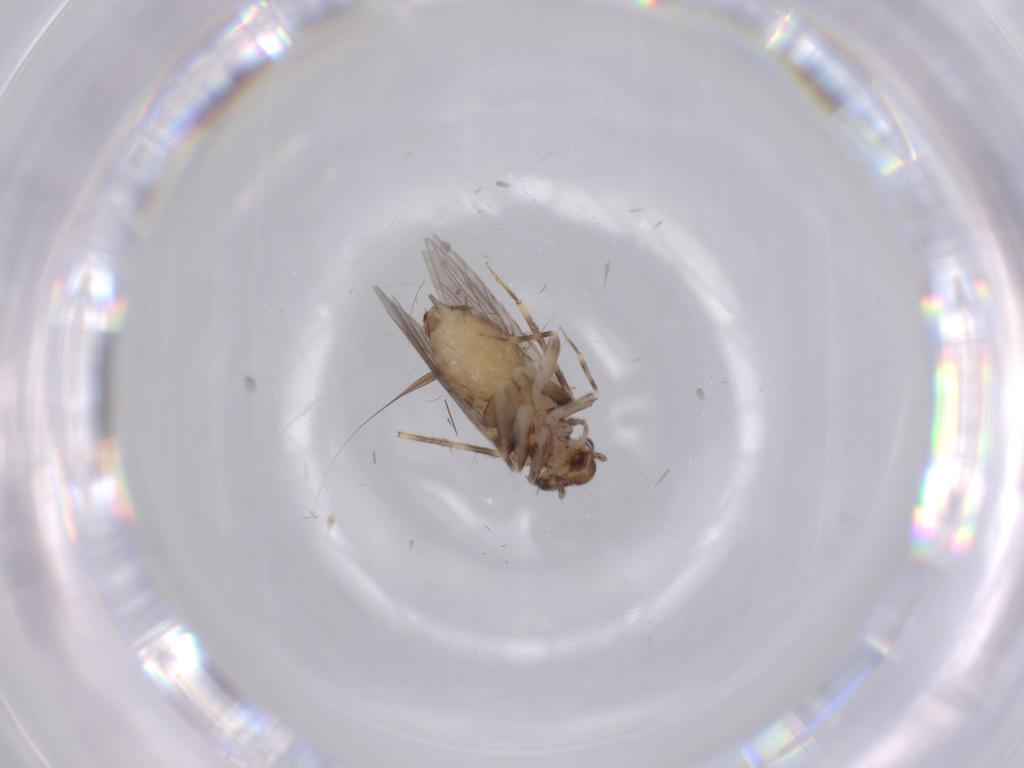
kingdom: Animalia
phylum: Arthropoda
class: Insecta
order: Psocodea
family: Lepidopsocidae
